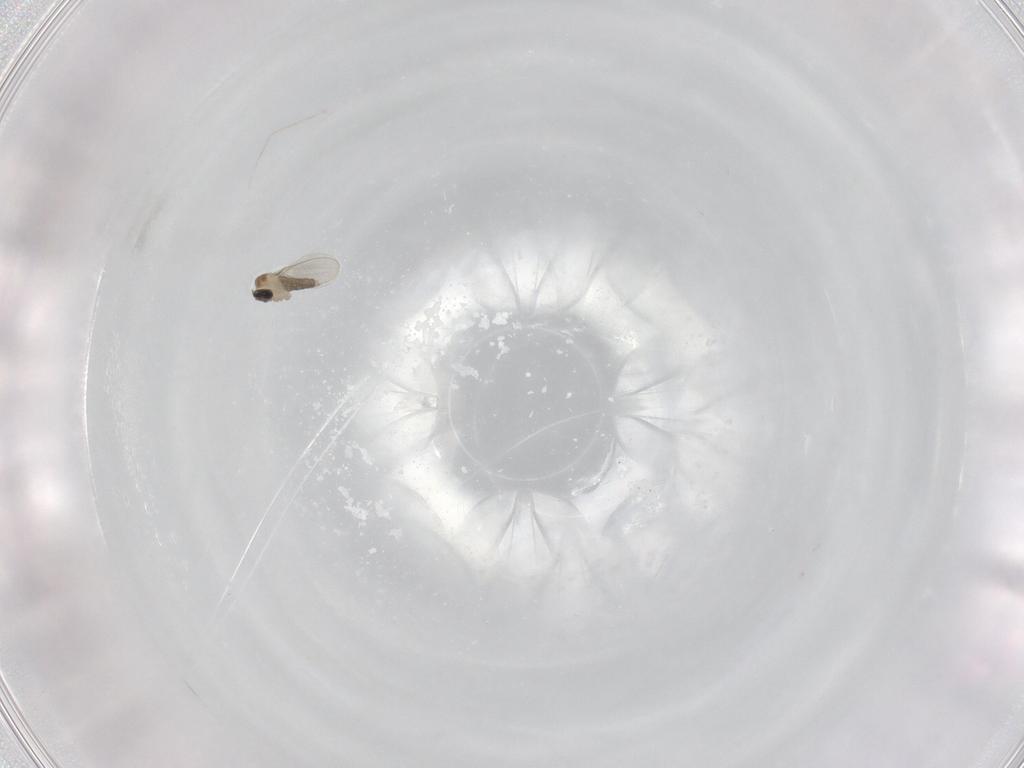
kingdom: Animalia
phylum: Arthropoda
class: Insecta
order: Diptera
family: Cecidomyiidae
